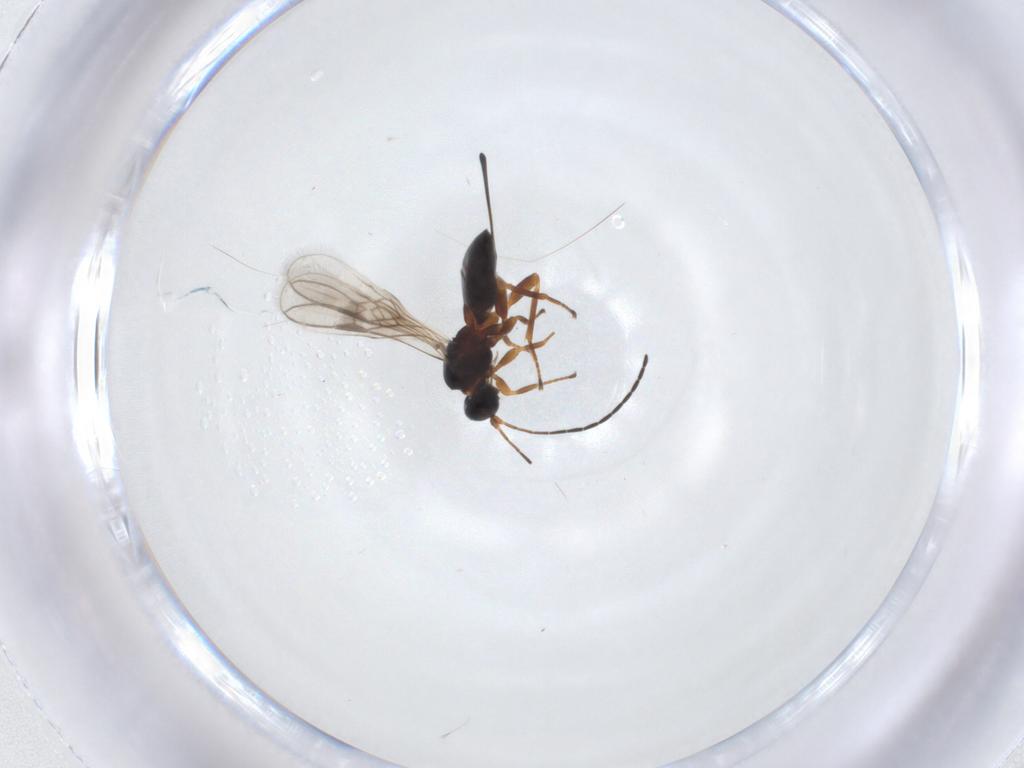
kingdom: Animalia
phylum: Arthropoda
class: Insecta
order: Hymenoptera
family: Braconidae
